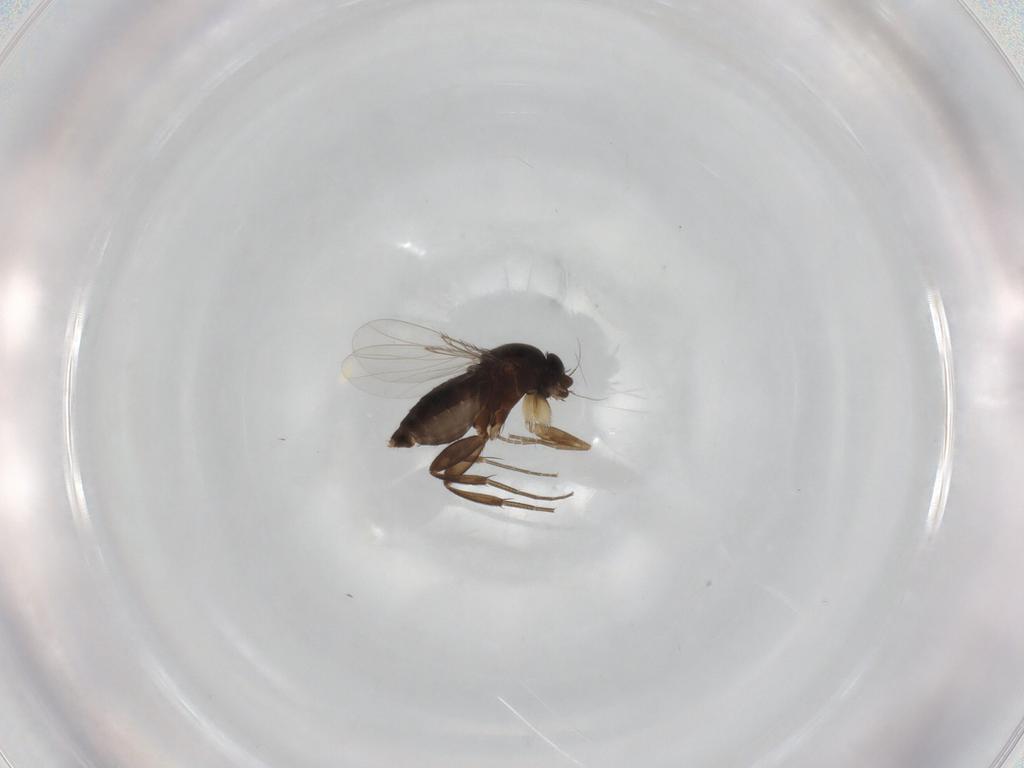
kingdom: Animalia
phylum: Arthropoda
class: Insecta
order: Diptera
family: Phoridae
